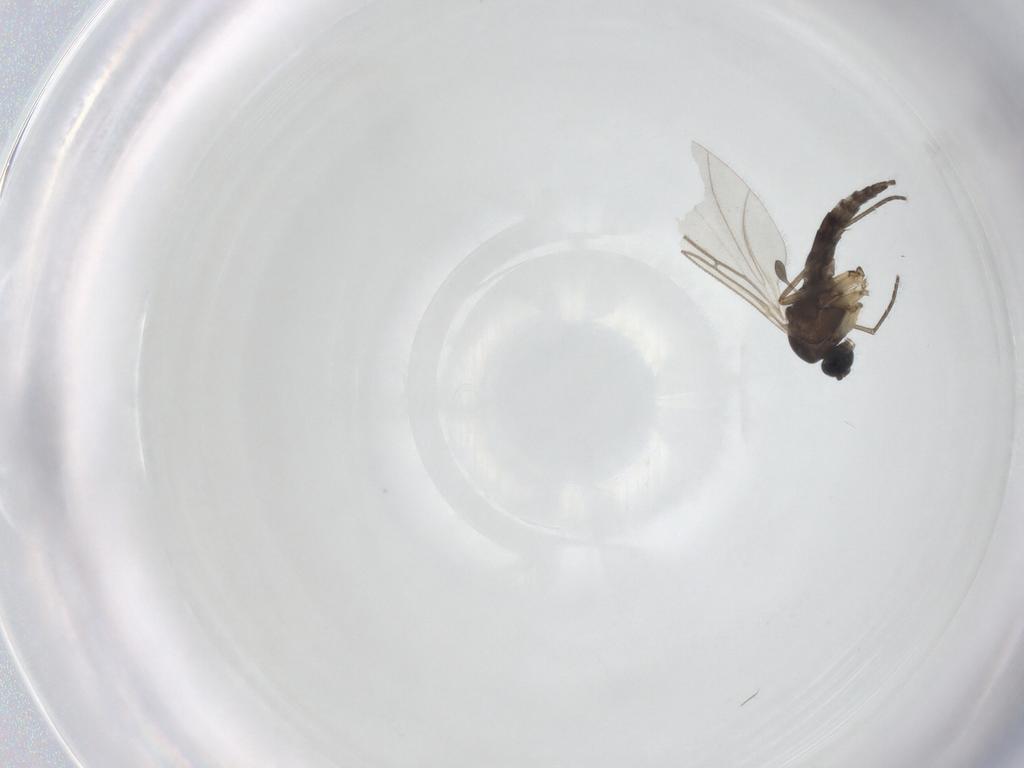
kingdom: Animalia
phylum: Arthropoda
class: Insecta
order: Diptera
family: Sciaridae
